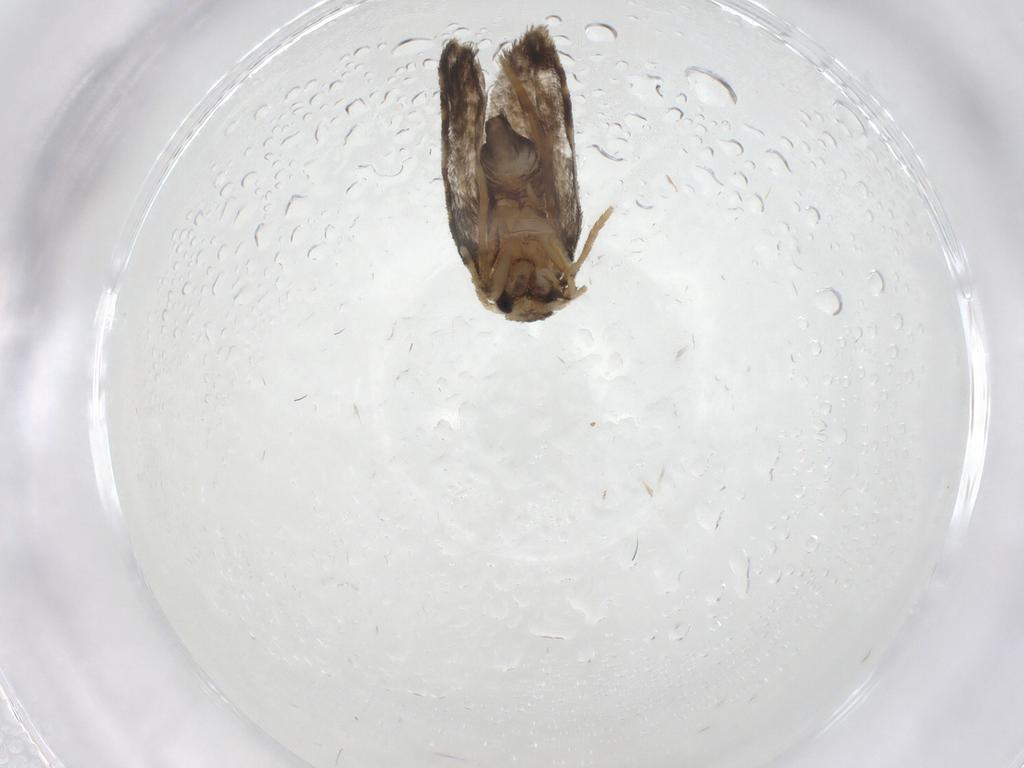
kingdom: Animalia
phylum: Arthropoda
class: Insecta
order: Lepidoptera
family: Psychidae
